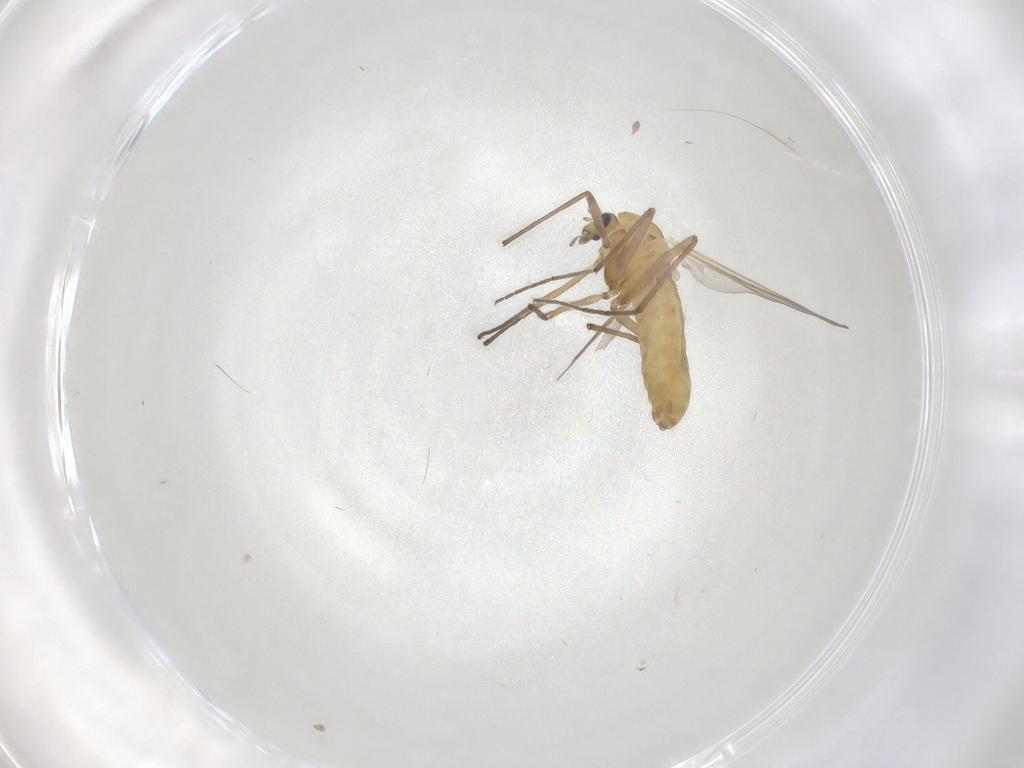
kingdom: Animalia
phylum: Arthropoda
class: Insecta
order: Diptera
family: Chironomidae
